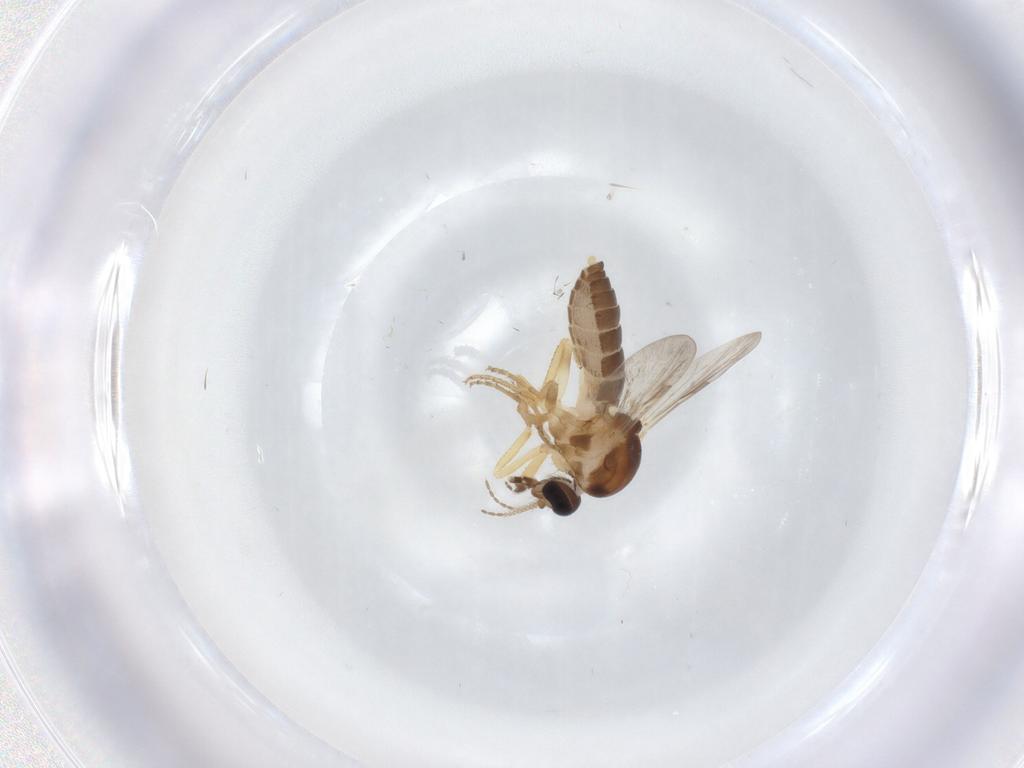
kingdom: Animalia
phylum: Arthropoda
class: Insecta
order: Diptera
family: Ceratopogonidae
